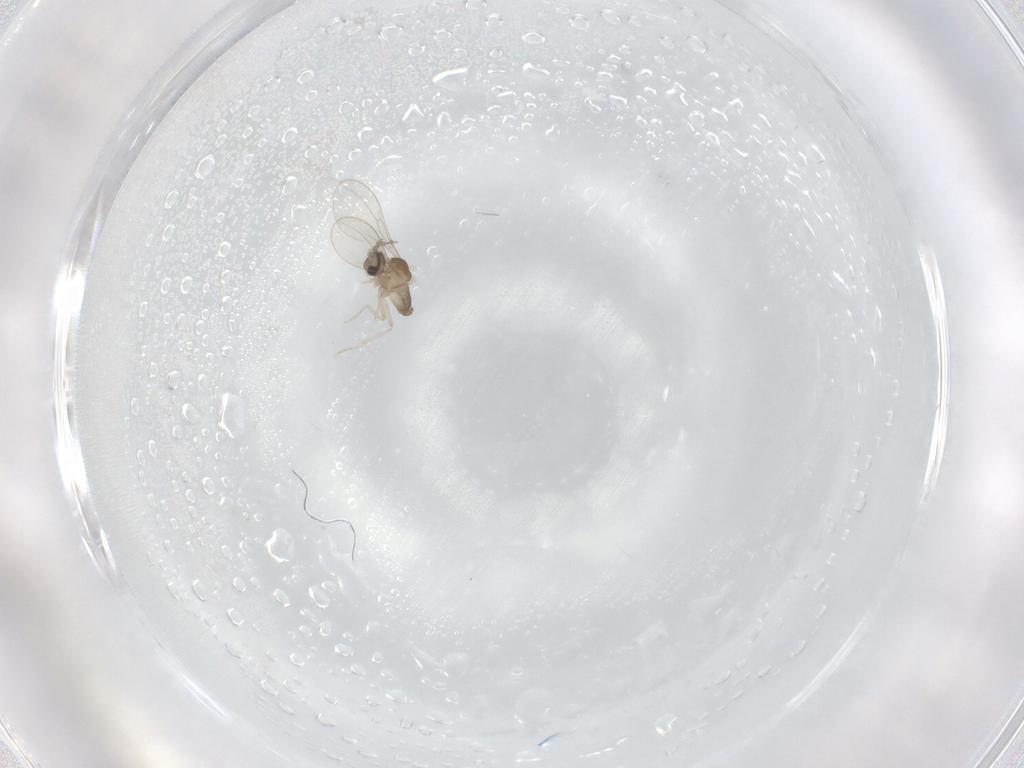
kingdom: Animalia
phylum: Arthropoda
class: Insecta
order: Diptera
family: Cecidomyiidae
